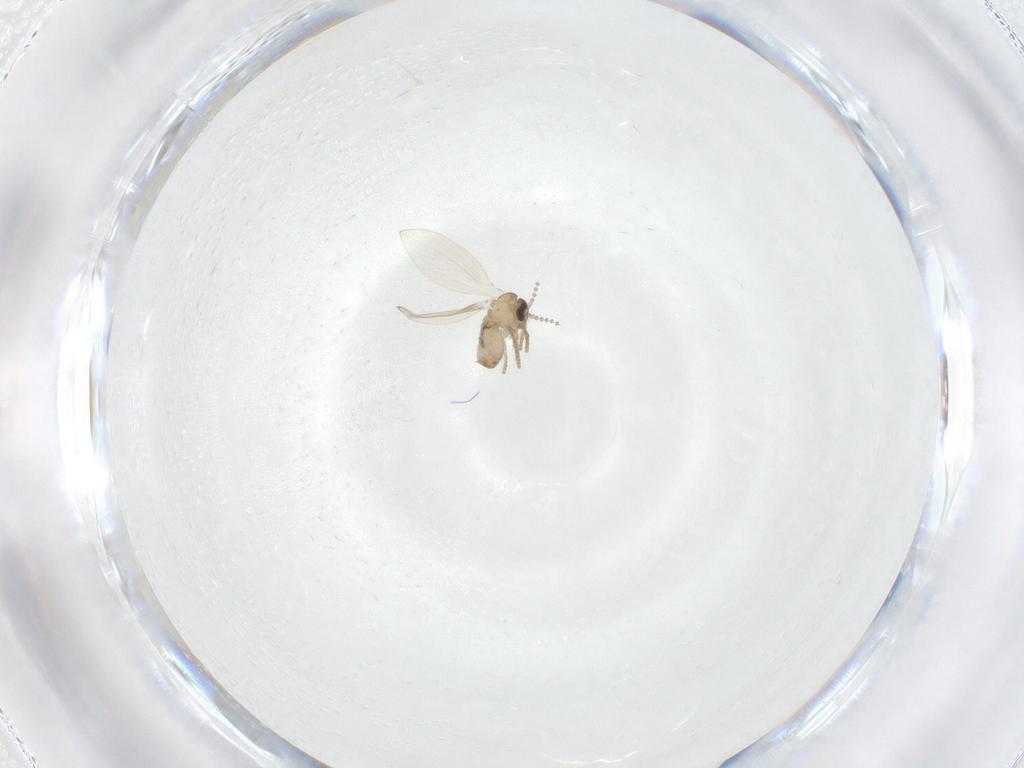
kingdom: Animalia
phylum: Arthropoda
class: Insecta
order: Diptera
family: Psychodidae
